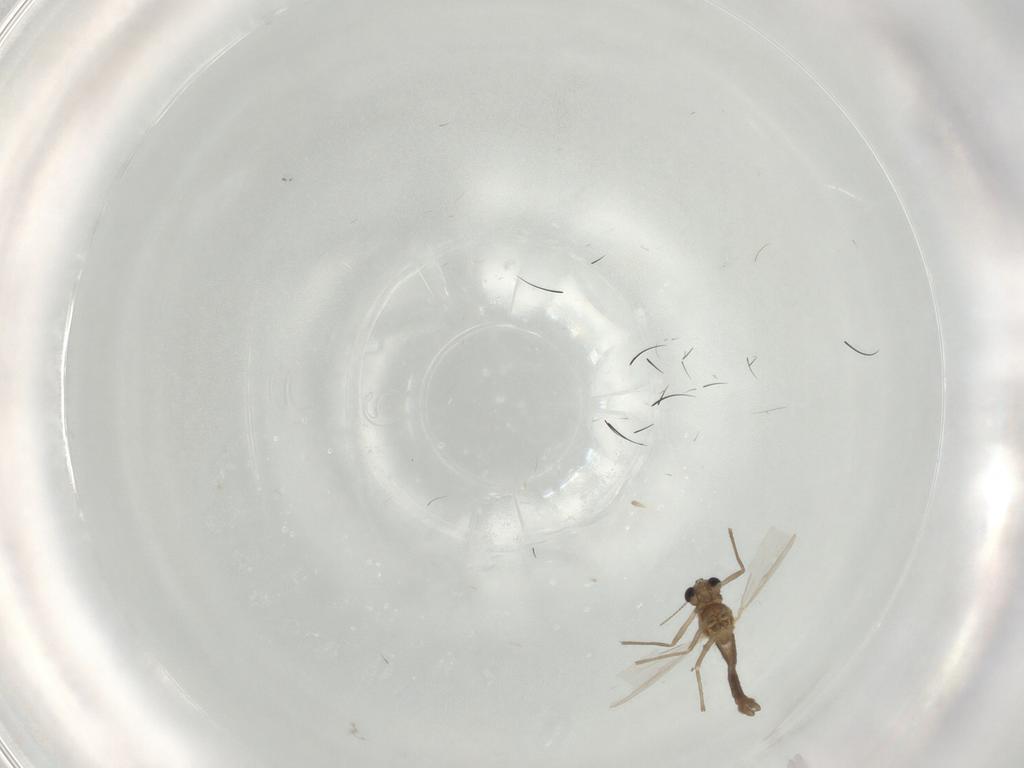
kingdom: Animalia
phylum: Arthropoda
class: Insecta
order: Diptera
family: Chironomidae
